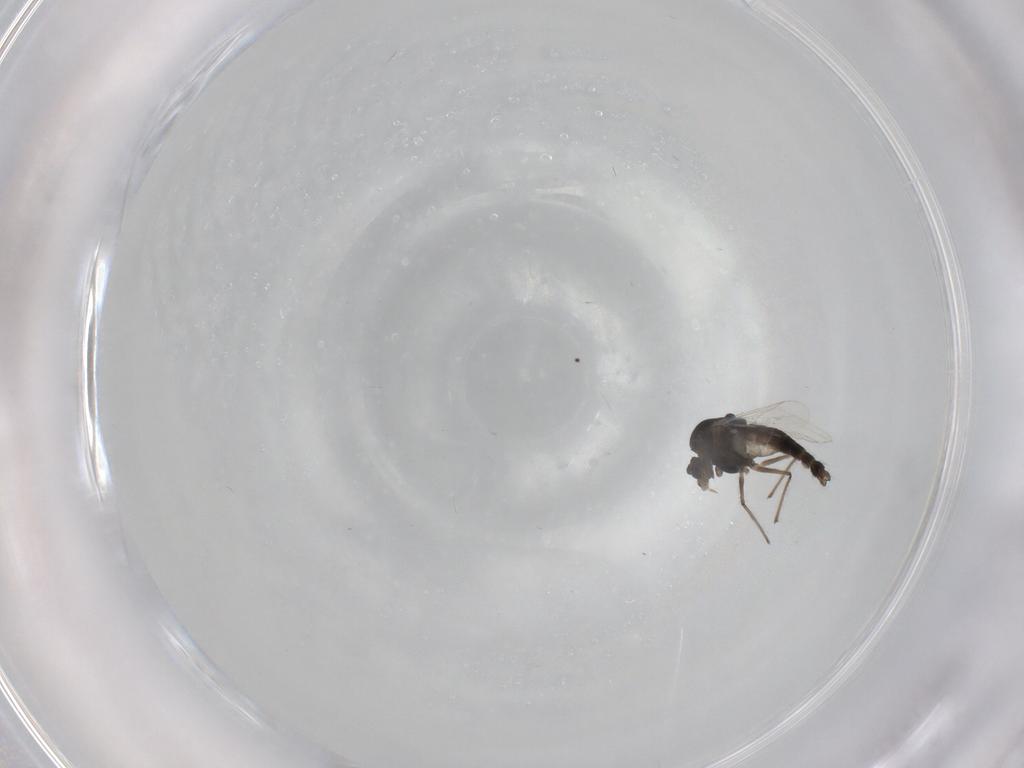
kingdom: Animalia
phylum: Arthropoda
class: Insecta
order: Diptera
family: Chironomidae
